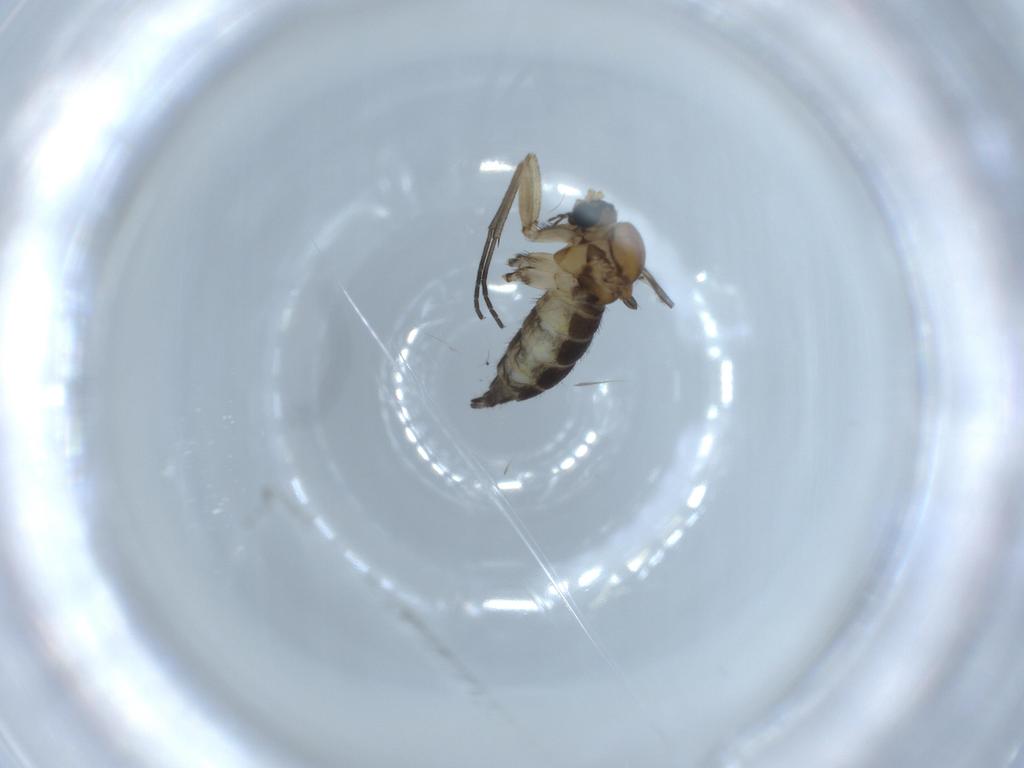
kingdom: Animalia
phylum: Arthropoda
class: Insecta
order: Diptera
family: Sciaridae
